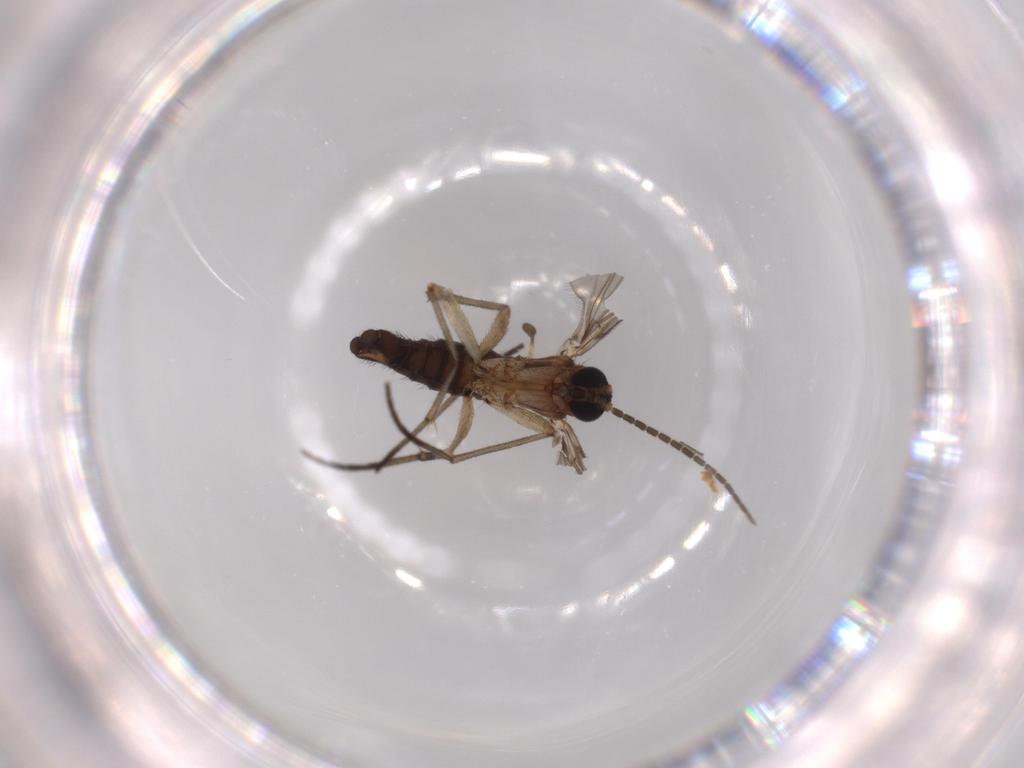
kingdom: Animalia
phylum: Arthropoda
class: Insecta
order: Diptera
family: Sciaridae
